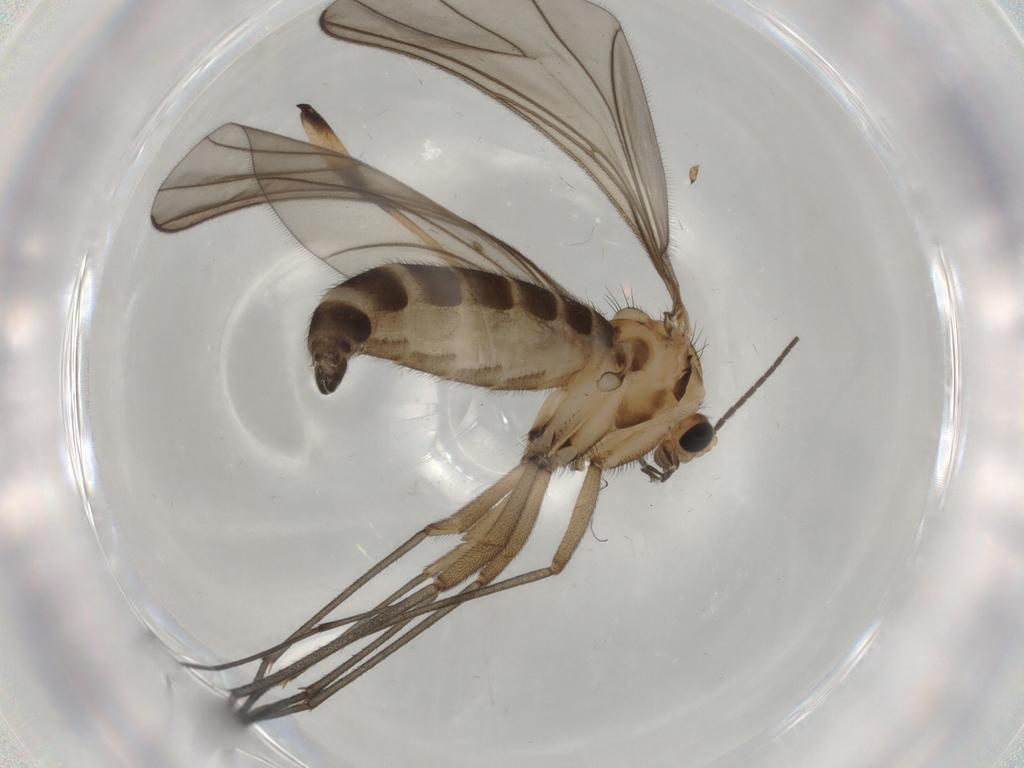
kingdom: Animalia
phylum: Arthropoda
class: Insecta
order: Diptera
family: Sciaridae
